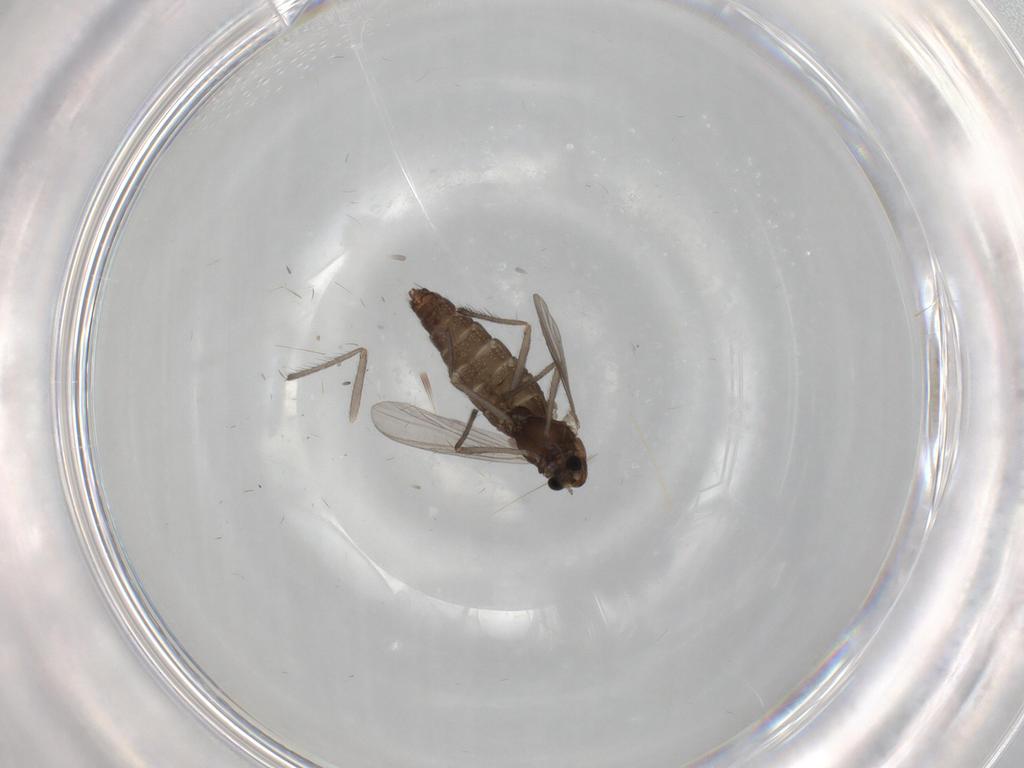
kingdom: Animalia
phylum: Arthropoda
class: Insecta
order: Diptera
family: Chironomidae
